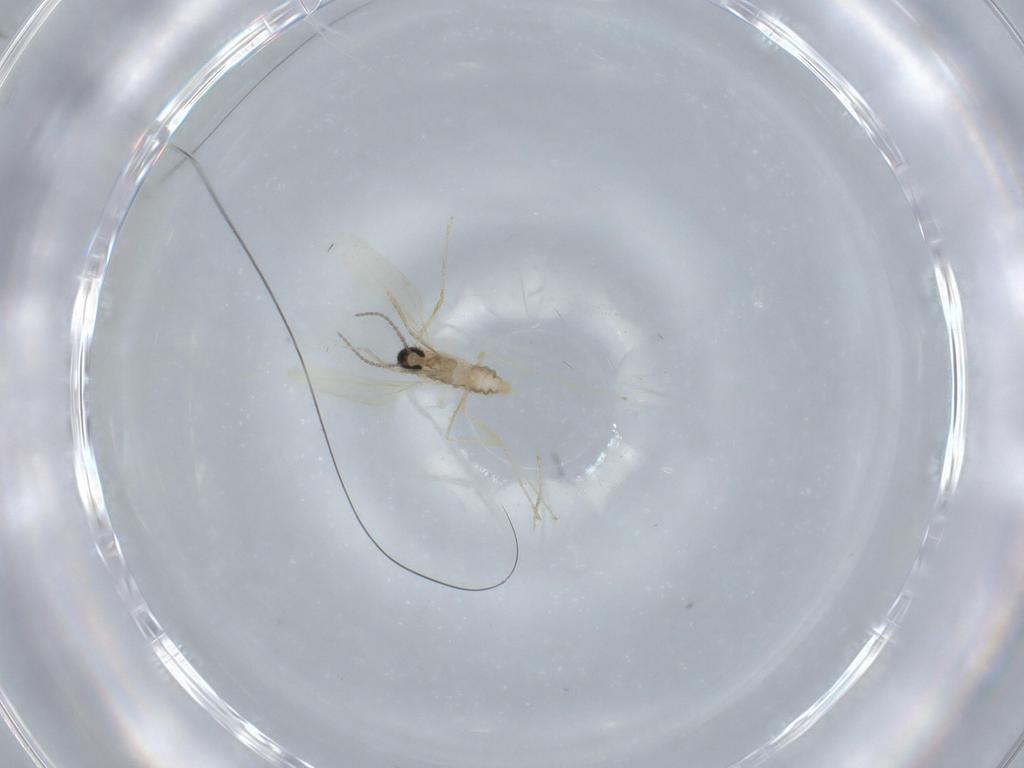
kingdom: Animalia
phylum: Arthropoda
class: Insecta
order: Diptera
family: Cecidomyiidae
